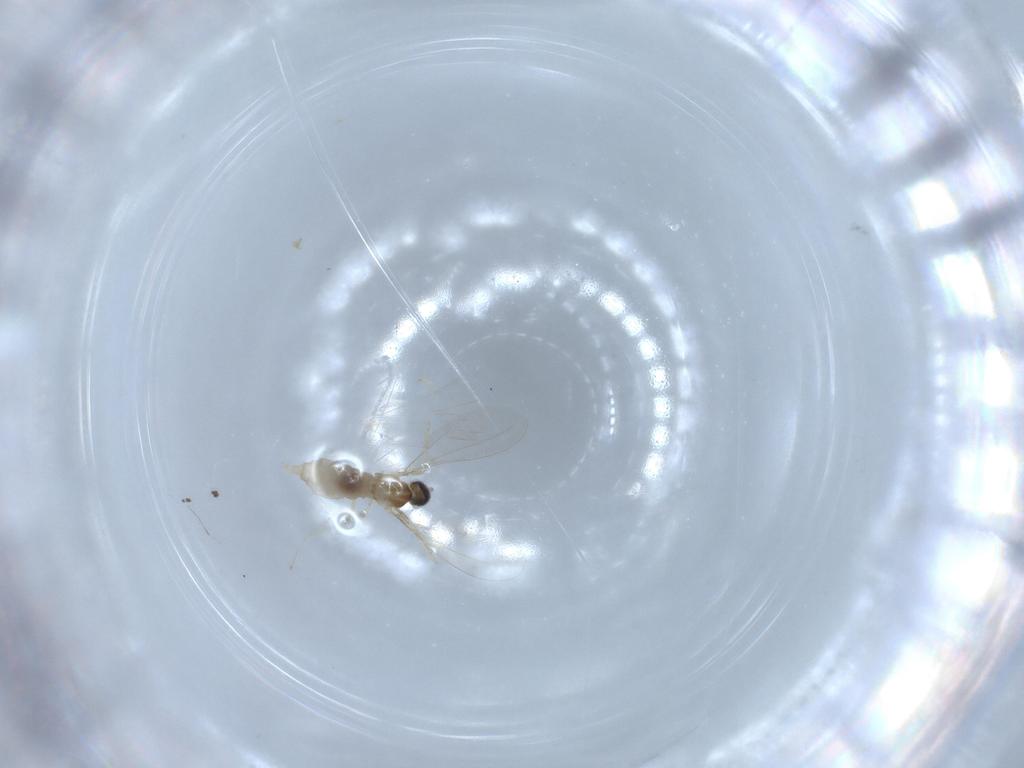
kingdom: Animalia
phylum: Arthropoda
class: Insecta
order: Diptera
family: Cecidomyiidae
